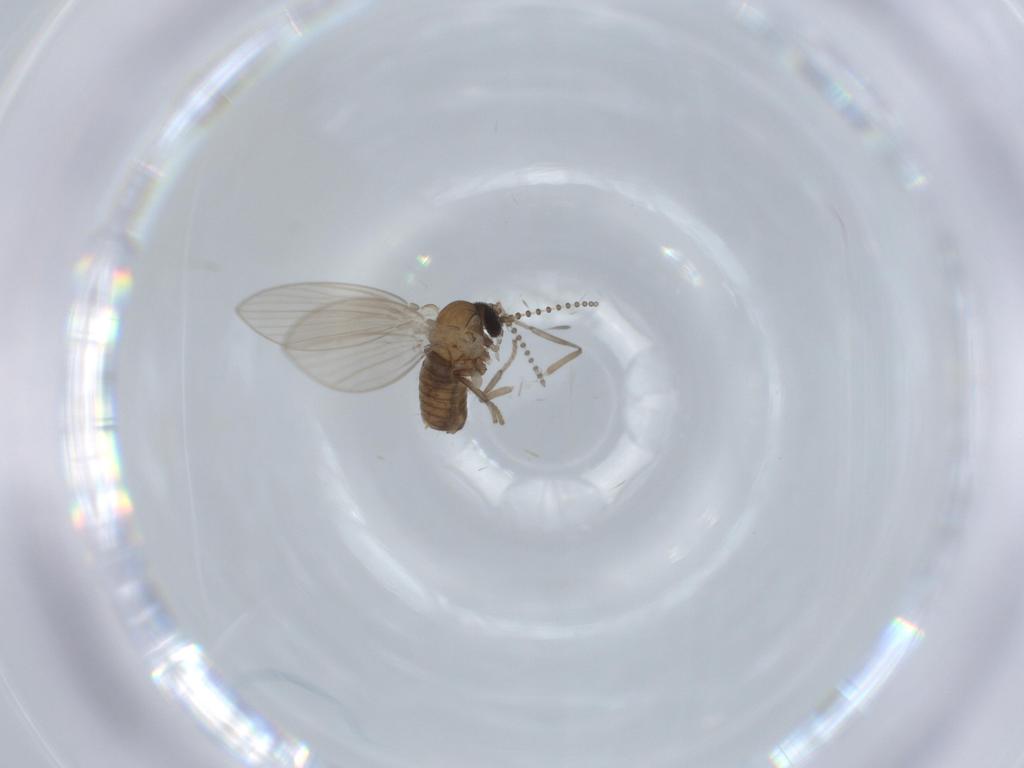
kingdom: Animalia
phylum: Arthropoda
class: Insecta
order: Diptera
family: Psychodidae
